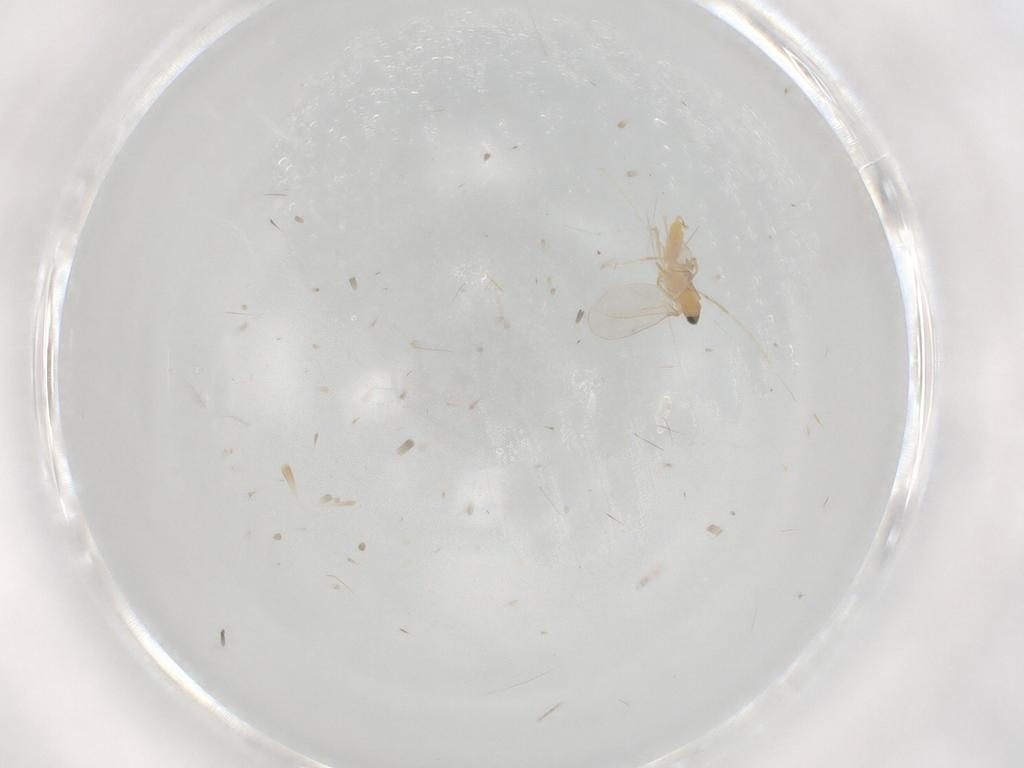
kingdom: Animalia
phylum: Arthropoda
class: Insecta
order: Diptera
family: Cecidomyiidae
